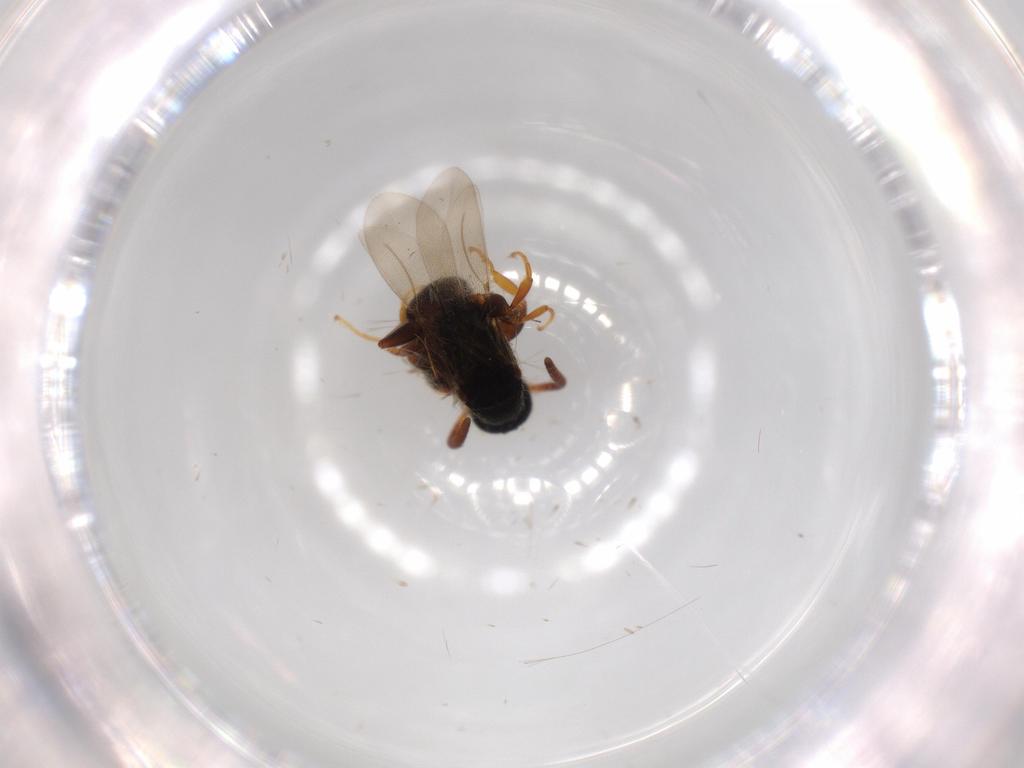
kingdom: Animalia
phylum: Arthropoda
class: Insecta
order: Hymenoptera
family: Bethylidae
